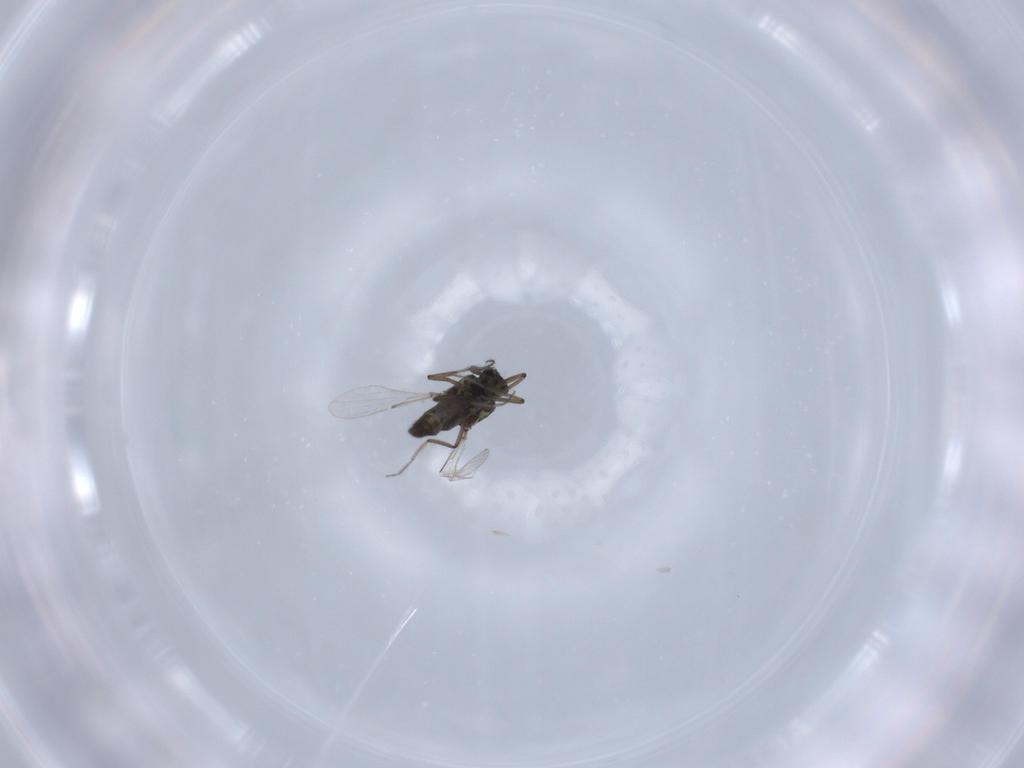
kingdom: Animalia
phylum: Arthropoda
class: Insecta
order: Diptera
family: Ceratopogonidae
